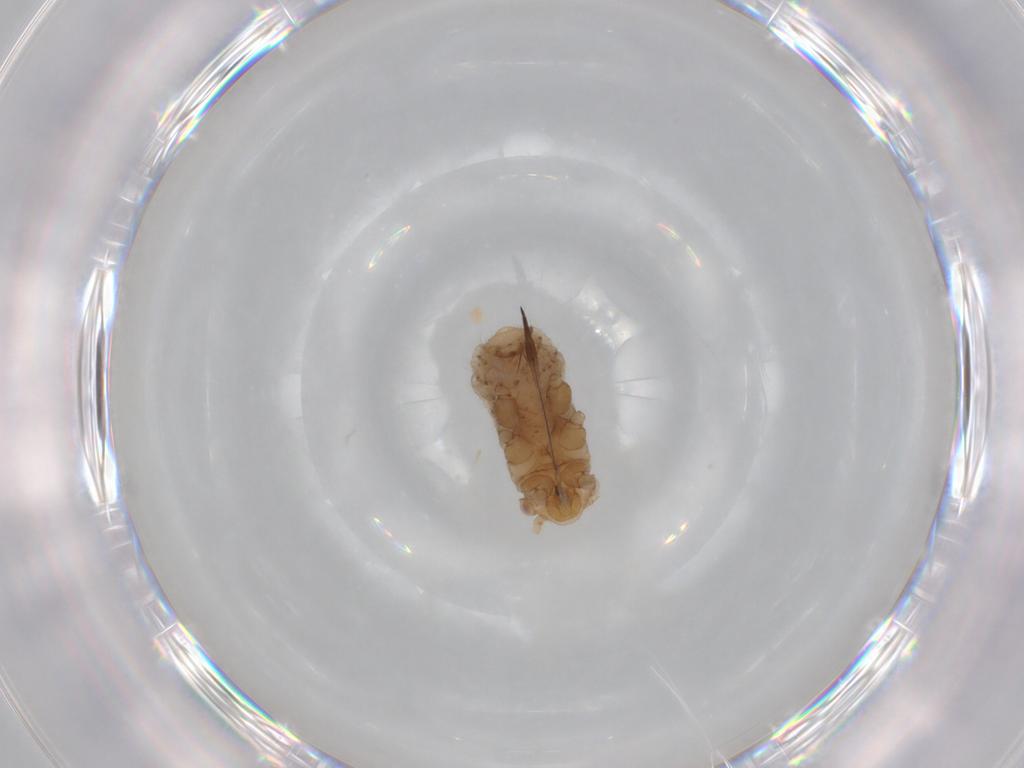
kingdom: Animalia
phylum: Arthropoda
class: Insecta
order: Hemiptera
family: Aphididae
